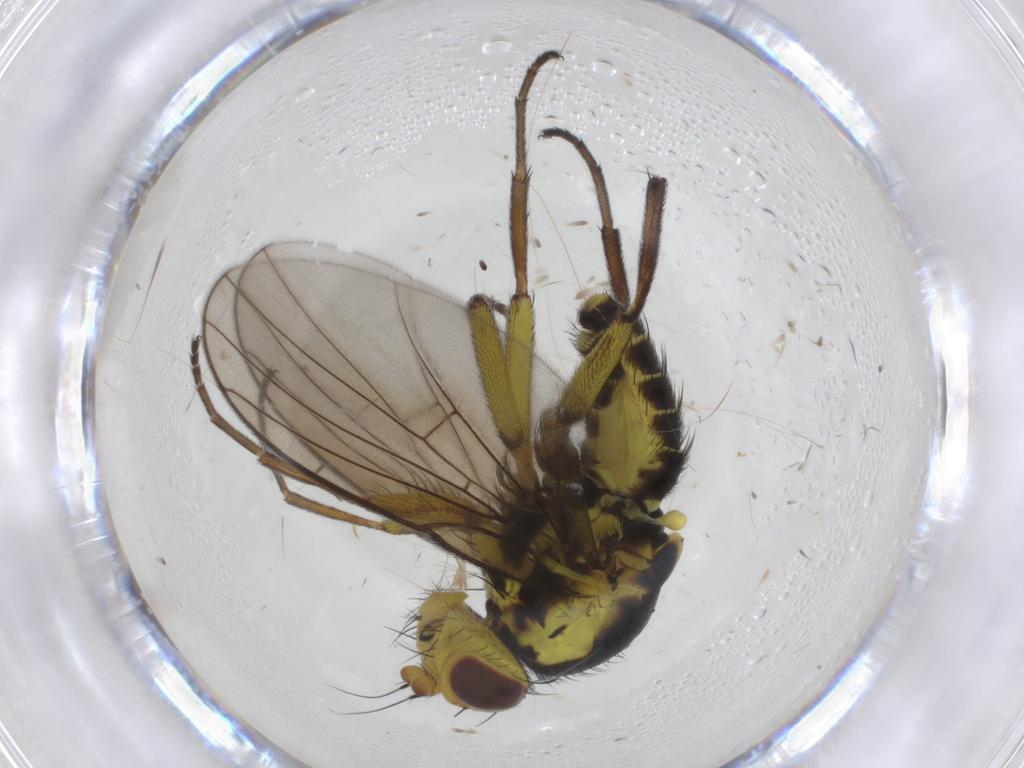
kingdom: Animalia
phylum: Arthropoda
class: Insecta
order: Diptera
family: Agromyzidae
